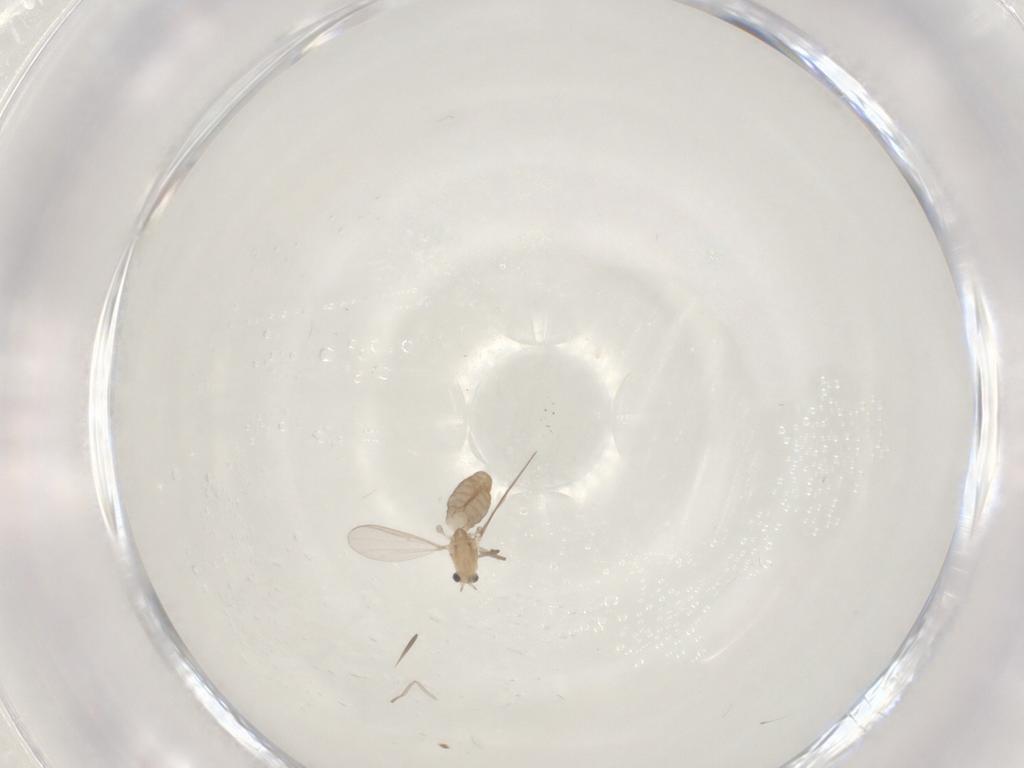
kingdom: Animalia
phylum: Arthropoda
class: Insecta
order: Diptera
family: Chironomidae
